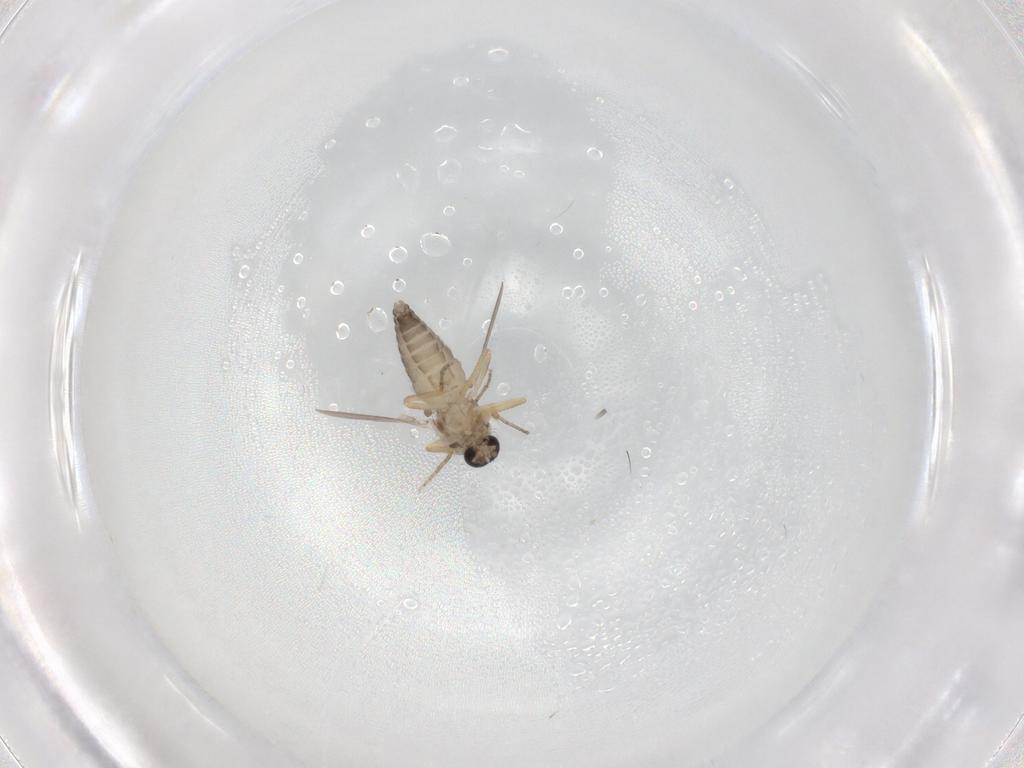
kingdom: Animalia
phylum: Arthropoda
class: Insecta
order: Diptera
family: Ceratopogonidae
